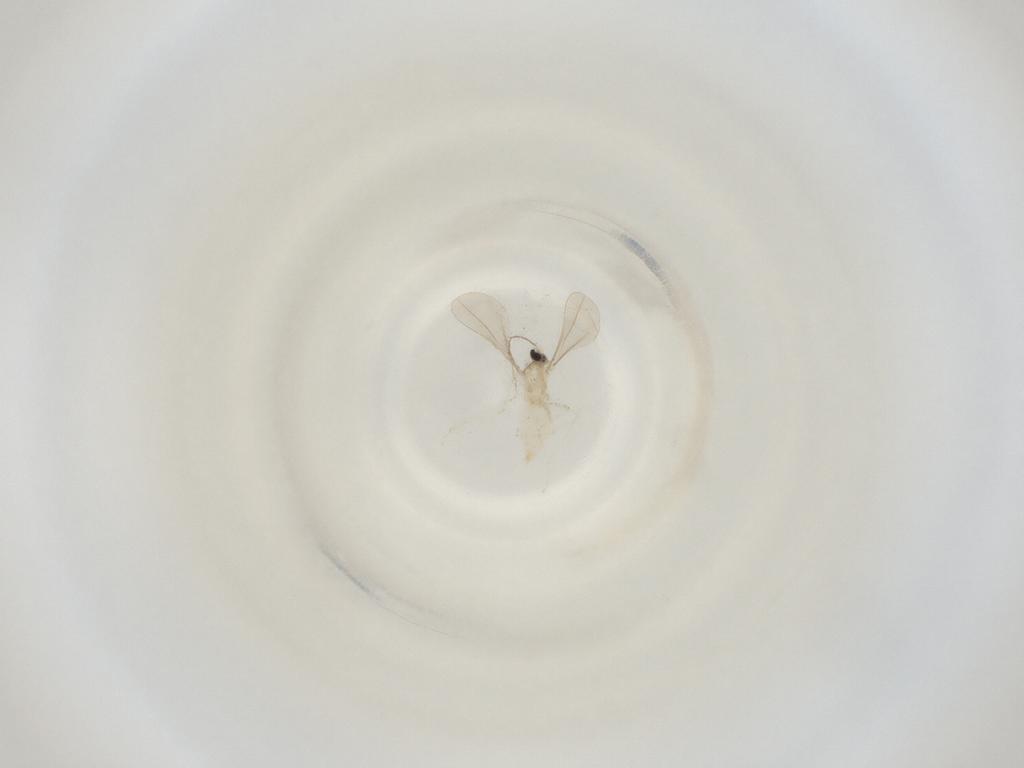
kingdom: Animalia
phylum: Arthropoda
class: Insecta
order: Diptera
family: Cecidomyiidae
